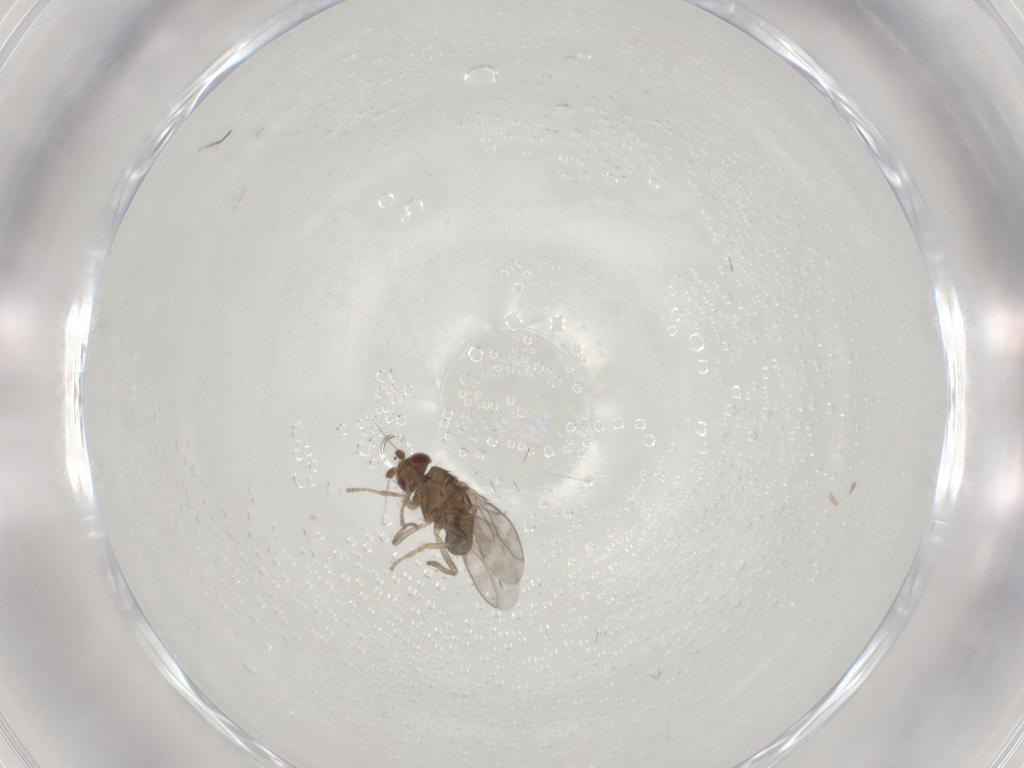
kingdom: Animalia
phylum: Arthropoda
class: Insecta
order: Diptera
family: Sphaeroceridae
